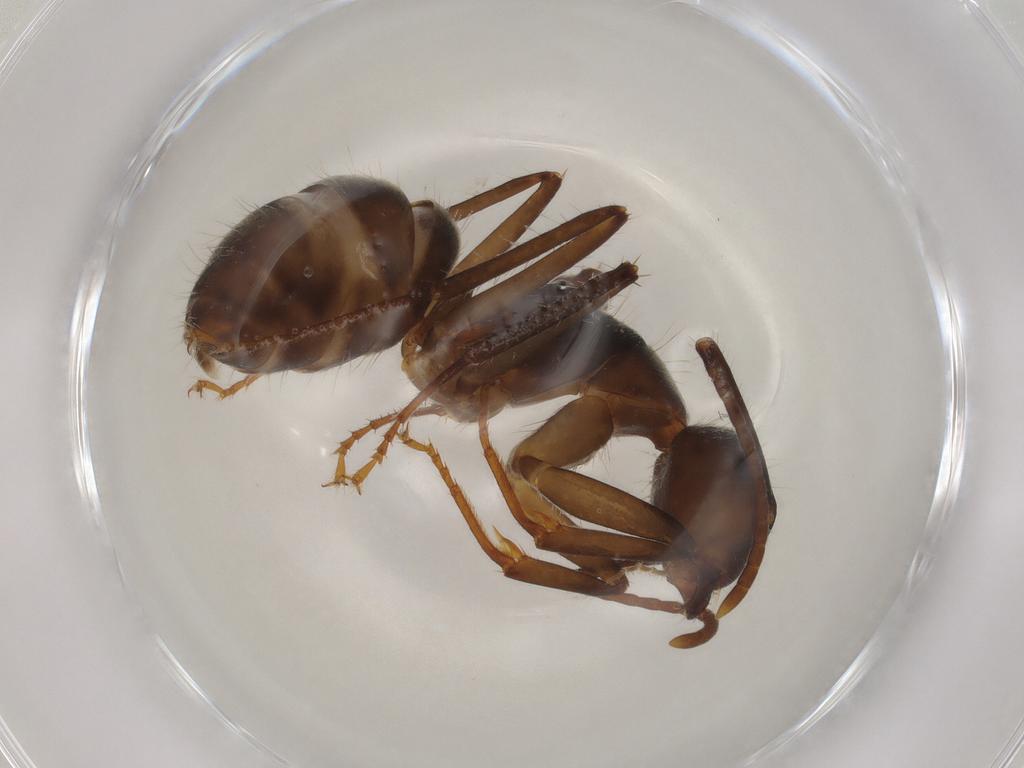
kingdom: Animalia
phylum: Arthropoda
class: Insecta
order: Hymenoptera
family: Formicidae
